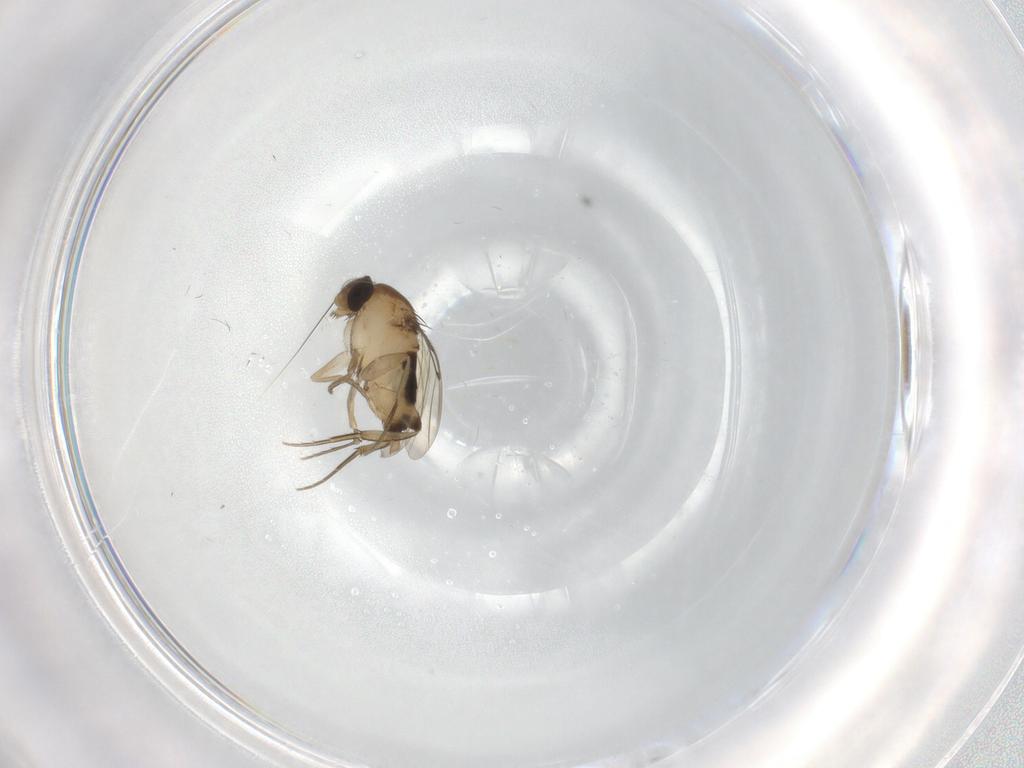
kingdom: Animalia
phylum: Arthropoda
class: Insecta
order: Diptera
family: Phoridae
